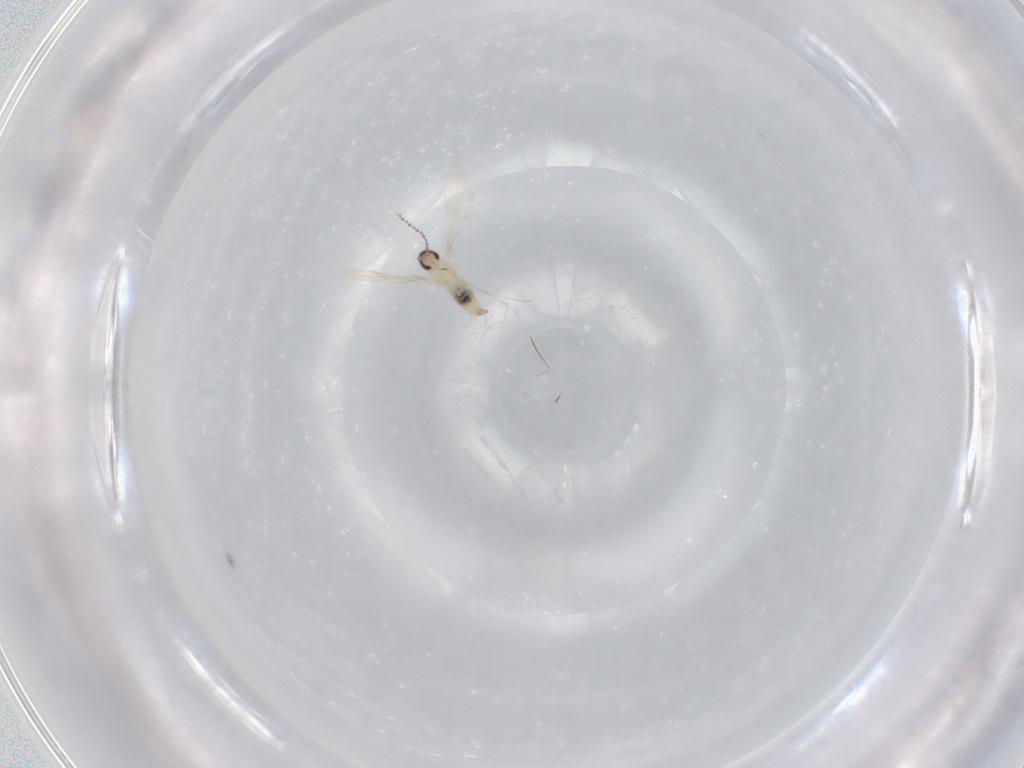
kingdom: Animalia
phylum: Arthropoda
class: Insecta
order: Diptera
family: Cecidomyiidae
